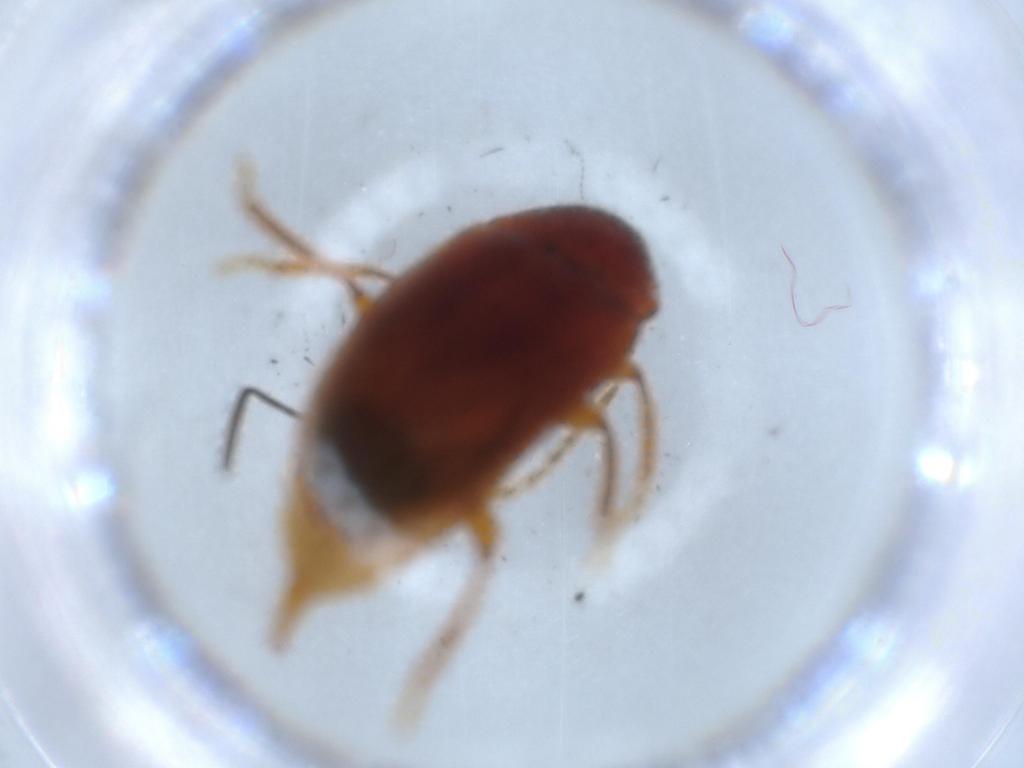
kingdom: Animalia
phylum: Arthropoda
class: Insecta
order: Coleoptera
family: Ptilodactylidae
